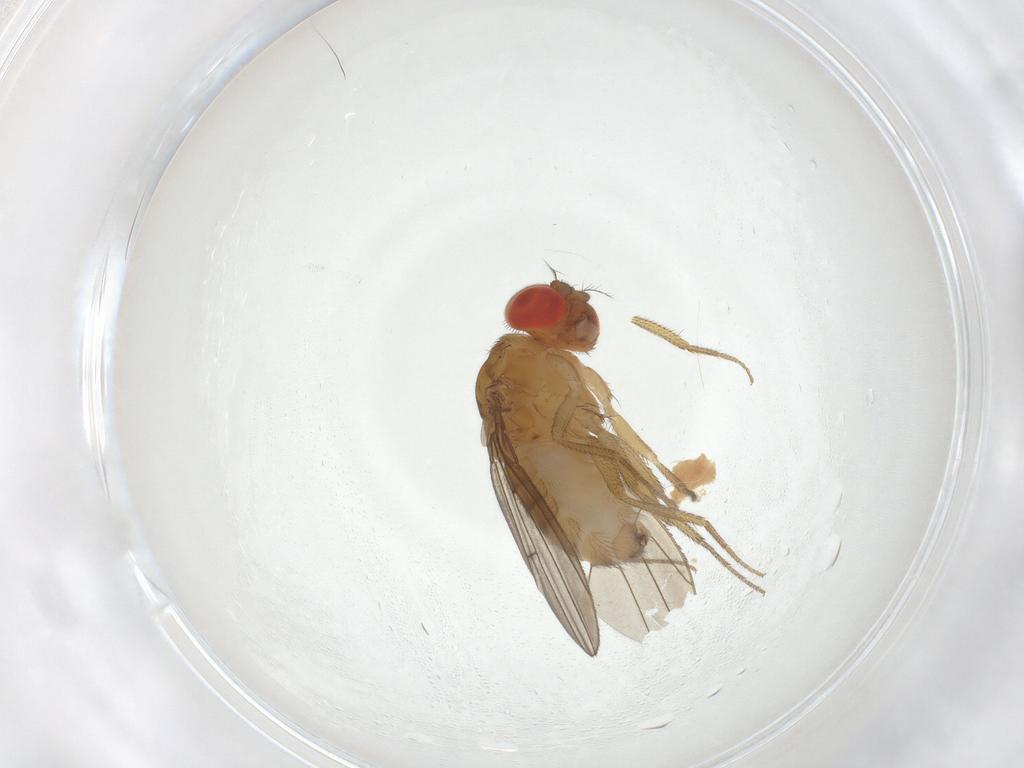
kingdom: Animalia
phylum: Arthropoda
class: Insecta
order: Diptera
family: Drosophilidae
